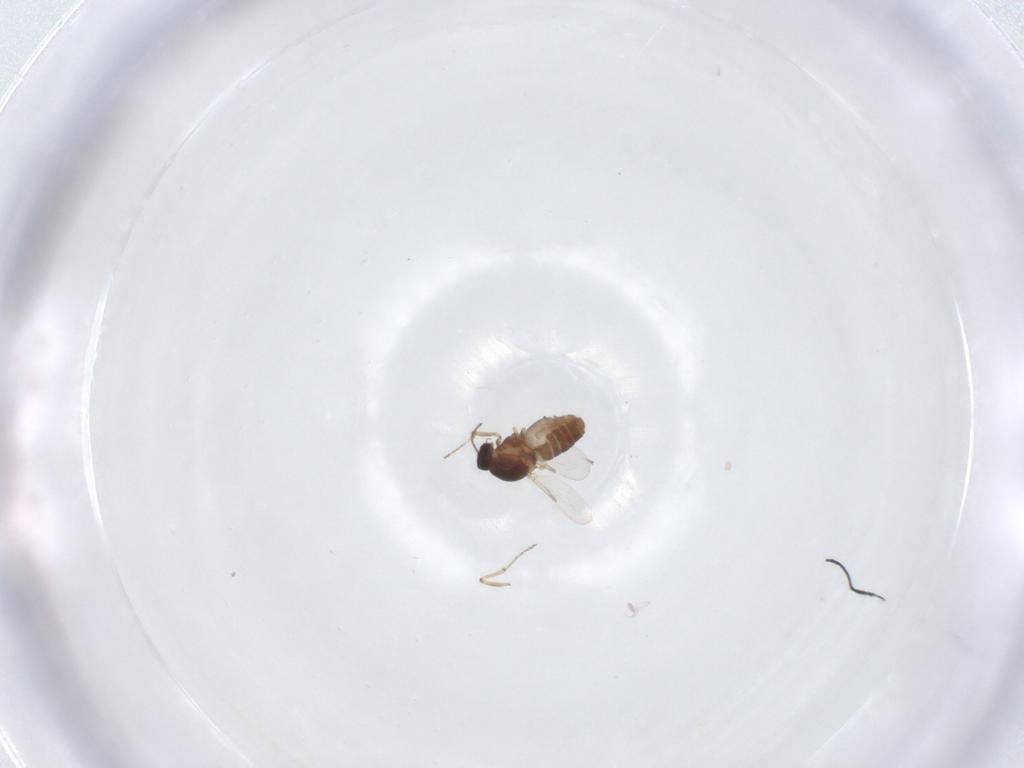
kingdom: Animalia
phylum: Arthropoda
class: Insecta
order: Diptera
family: Ceratopogonidae
